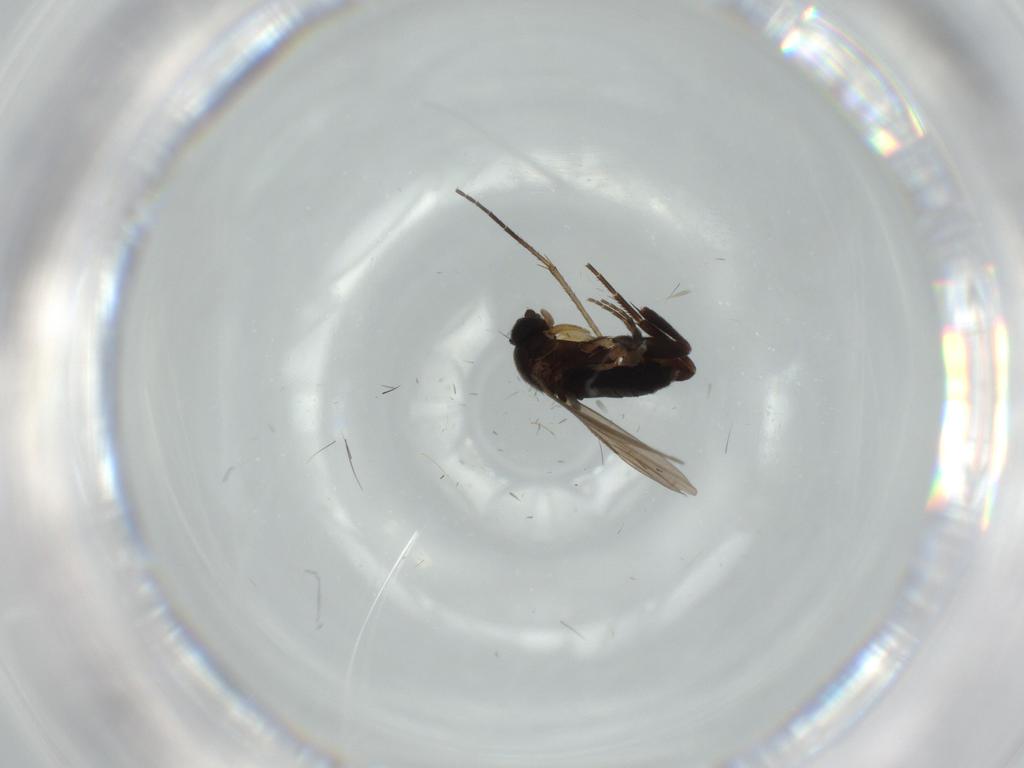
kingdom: Animalia
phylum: Arthropoda
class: Insecta
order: Diptera
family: Phoridae
